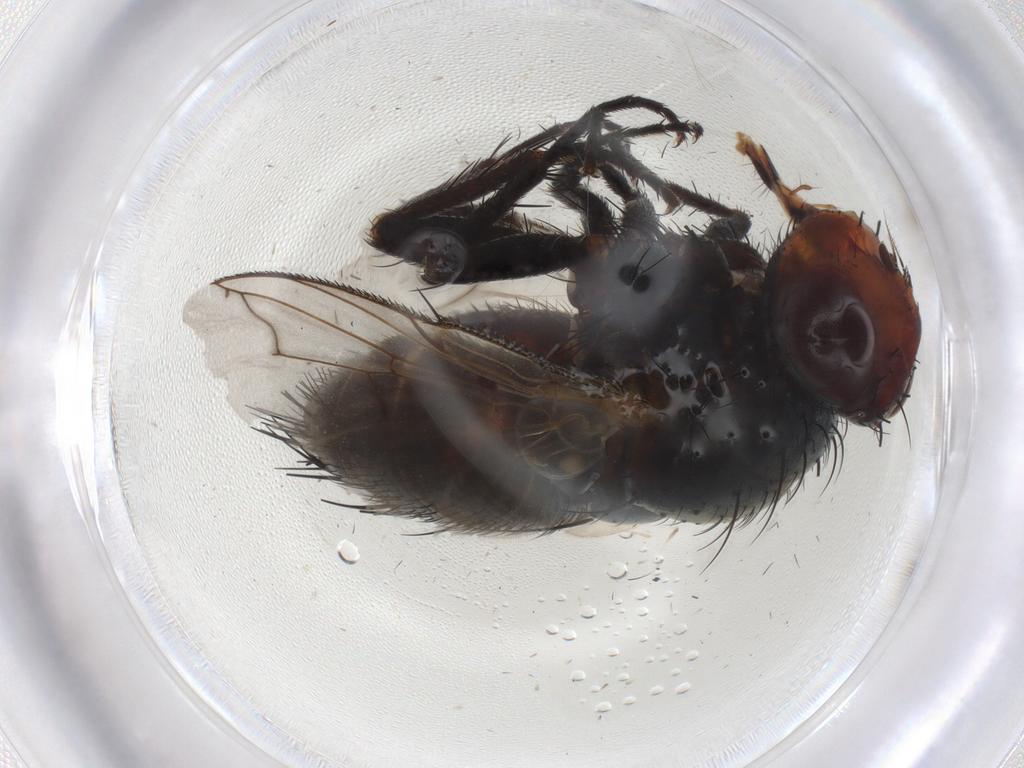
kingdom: Animalia
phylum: Arthropoda
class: Insecta
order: Diptera
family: Tachinidae
